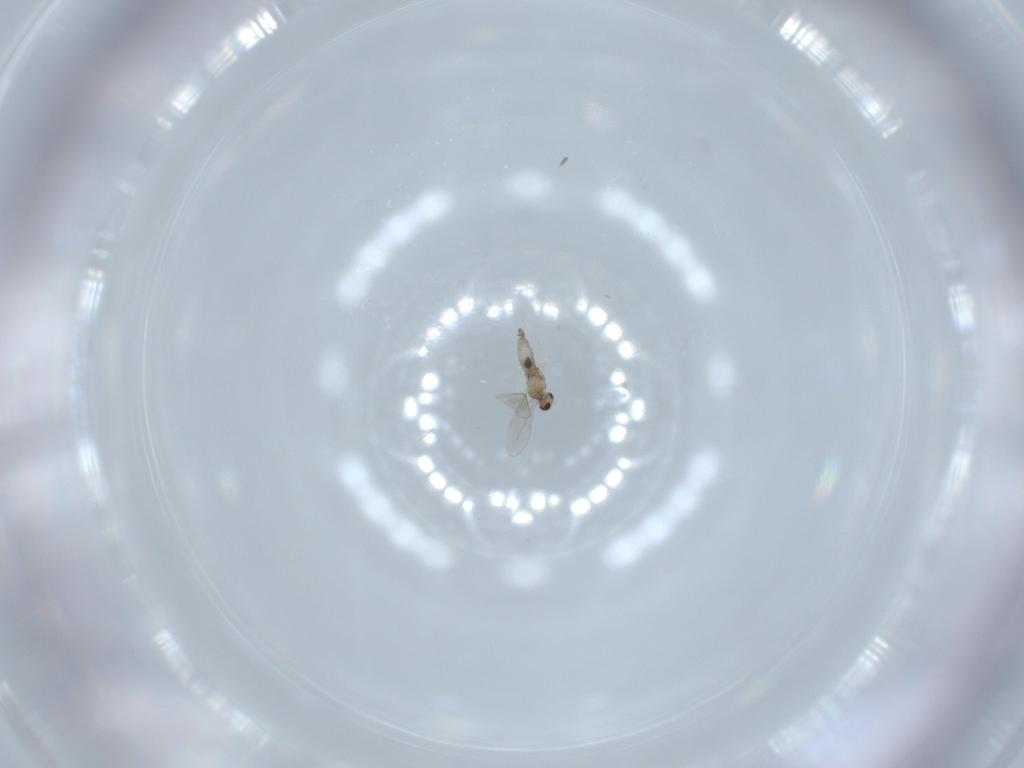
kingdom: Animalia
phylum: Arthropoda
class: Insecta
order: Diptera
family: Cecidomyiidae
